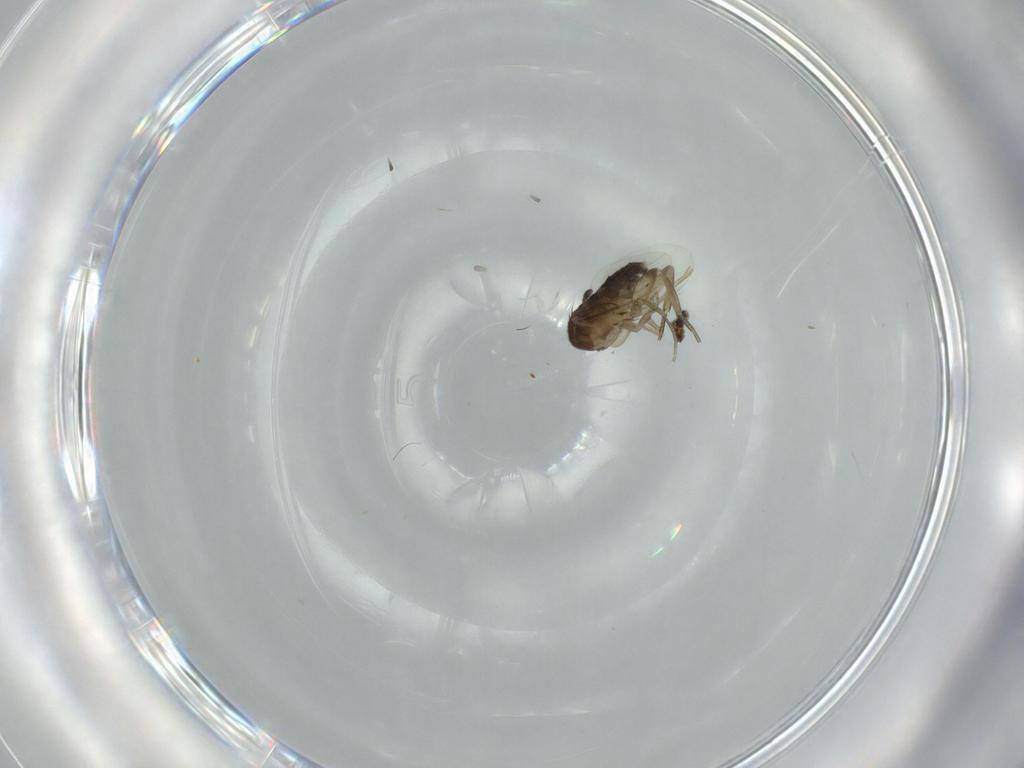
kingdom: Animalia
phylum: Arthropoda
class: Insecta
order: Diptera
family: Phoridae
